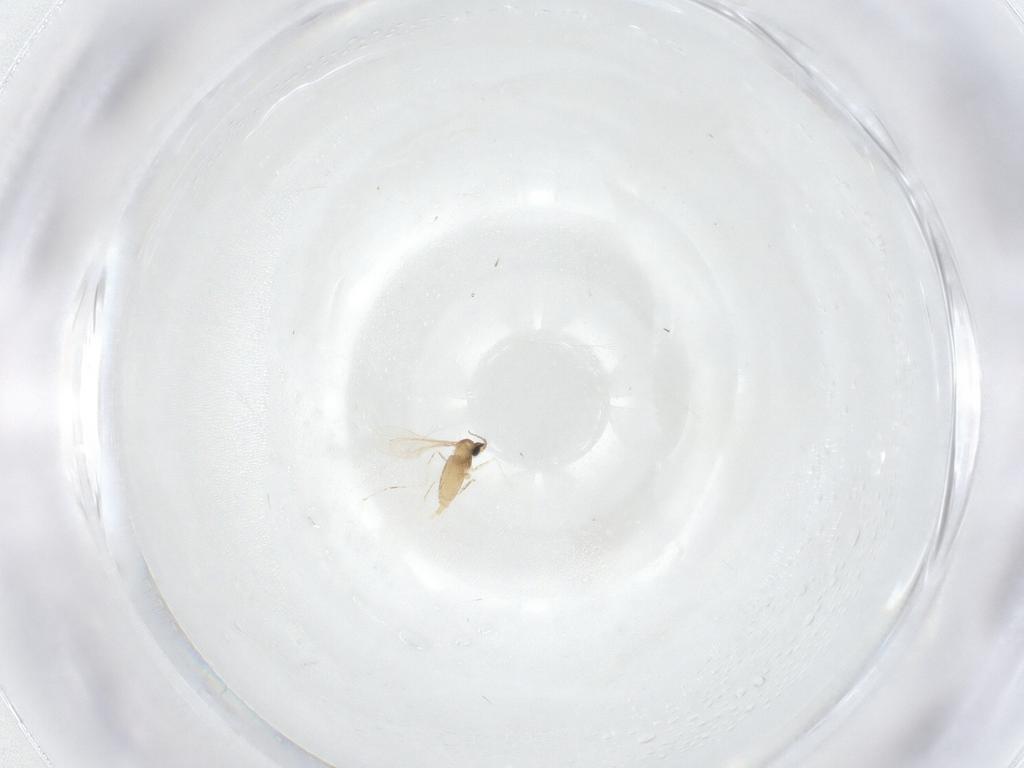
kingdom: Animalia
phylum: Arthropoda
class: Insecta
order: Diptera
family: Cecidomyiidae
